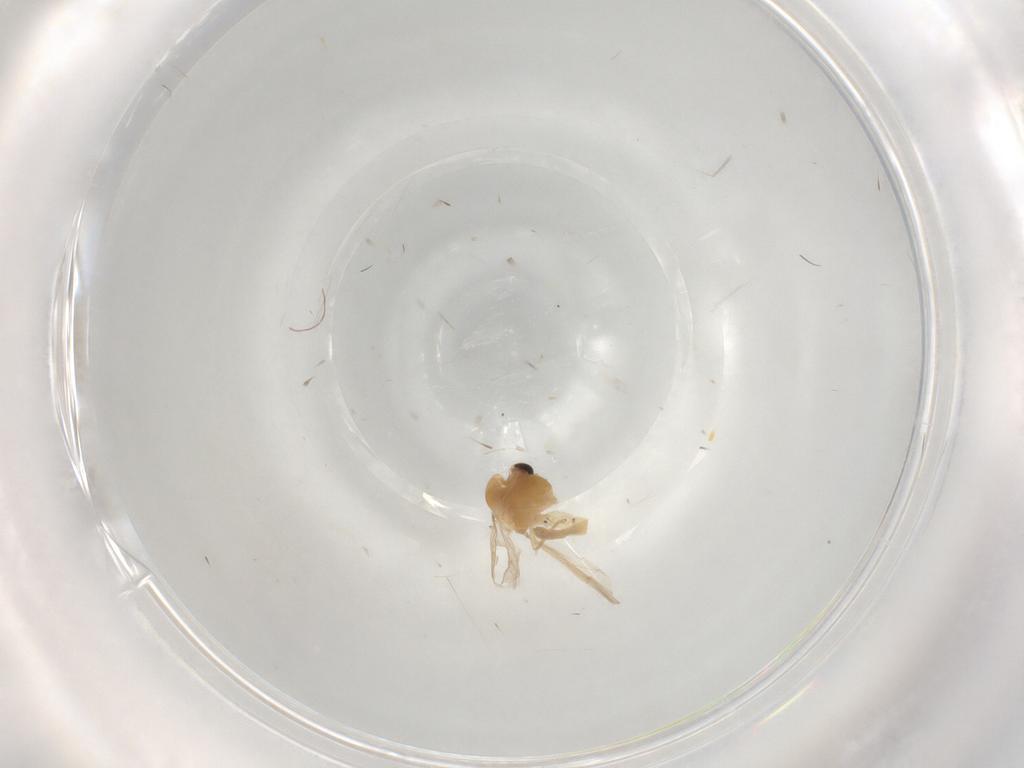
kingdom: Animalia
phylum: Arthropoda
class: Insecta
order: Diptera
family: Chironomidae
